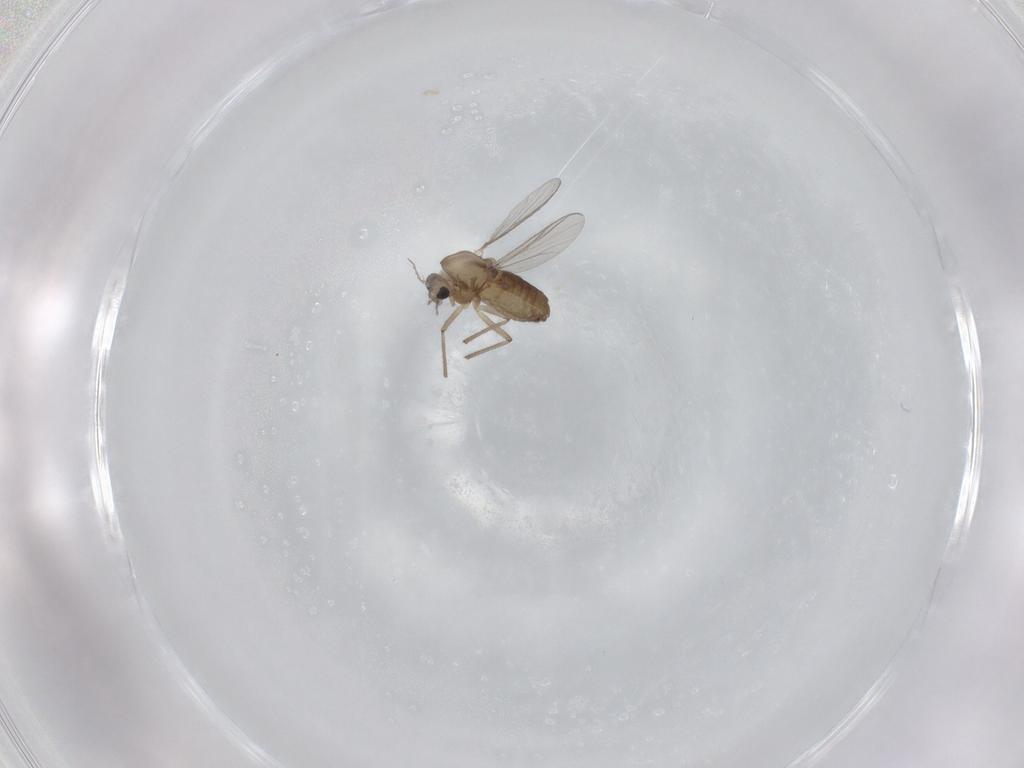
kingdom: Animalia
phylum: Arthropoda
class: Insecta
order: Diptera
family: Chironomidae
